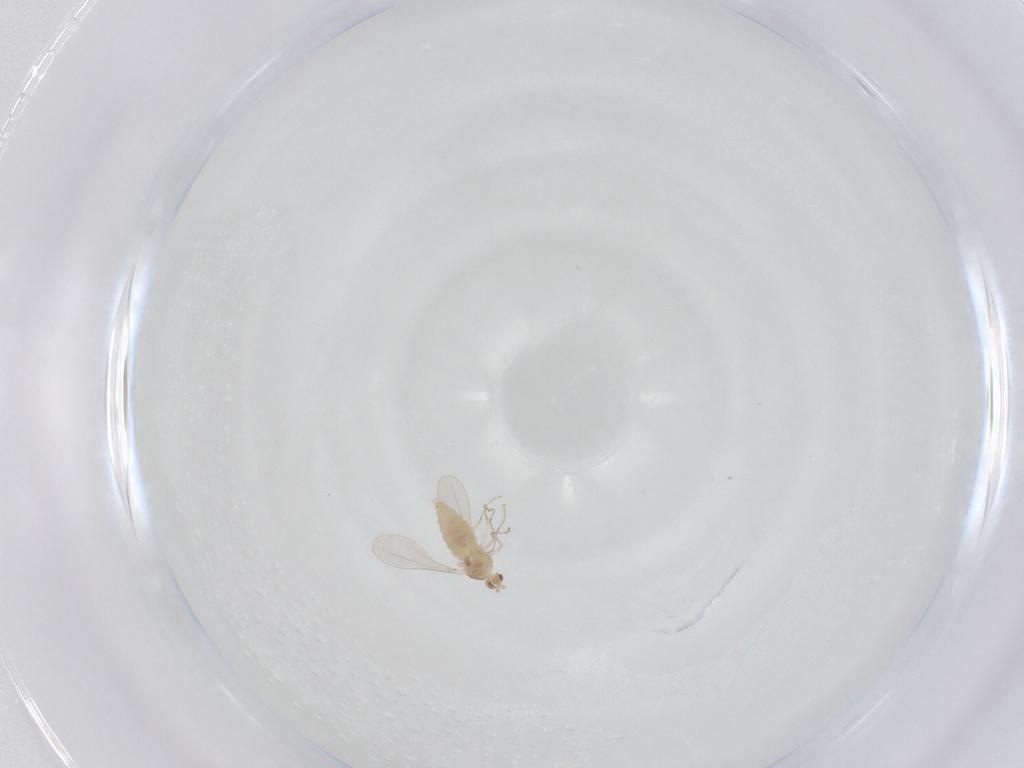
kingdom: Animalia
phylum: Arthropoda
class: Insecta
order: Diptera
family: Cecidomyiidae
